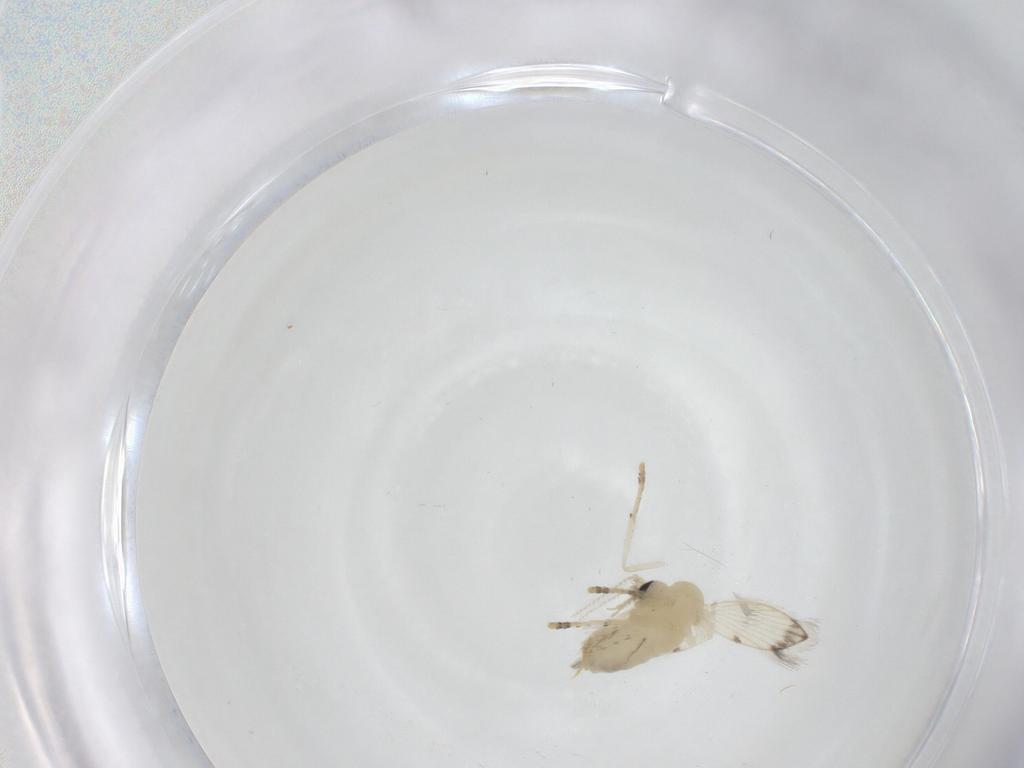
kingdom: Animalia
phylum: Arthropoda
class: Insecta
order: Diptera
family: Psychodidae
